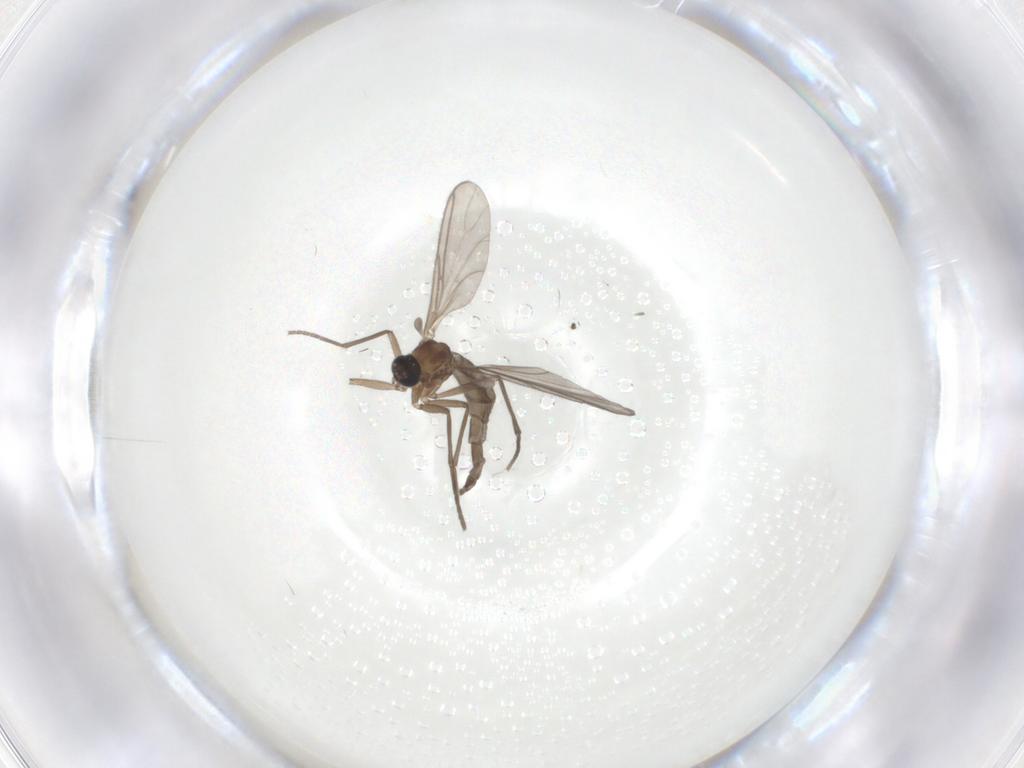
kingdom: Animalia
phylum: Arthropoda
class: Insecta
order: Diptera
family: Sciaridae
